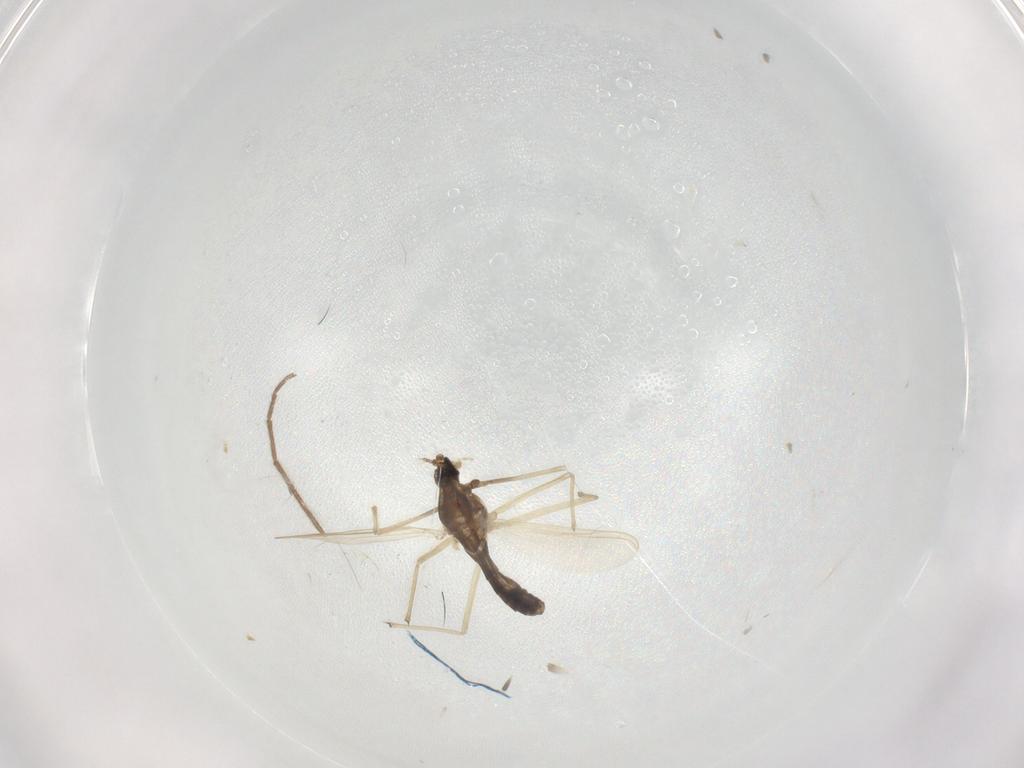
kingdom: Animalia
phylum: Arthropoda
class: Insecta
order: Diptera
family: Chironomidae
